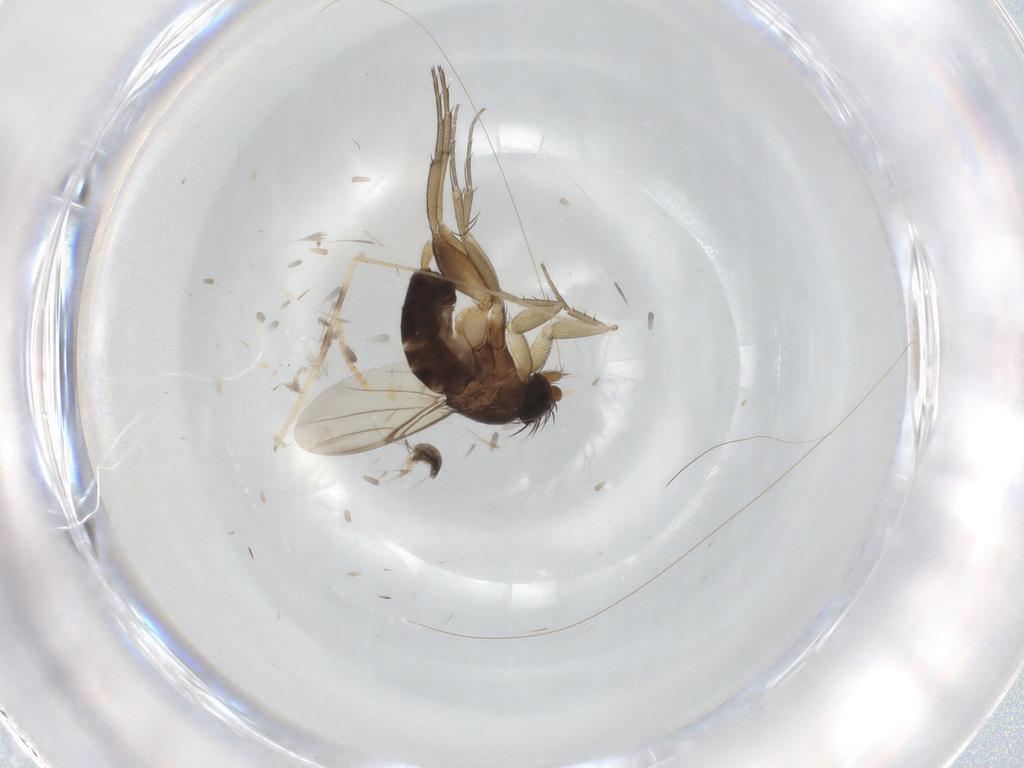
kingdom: Animalia
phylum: Arthropoda
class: Insecta
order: Diptera
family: Phoridae
